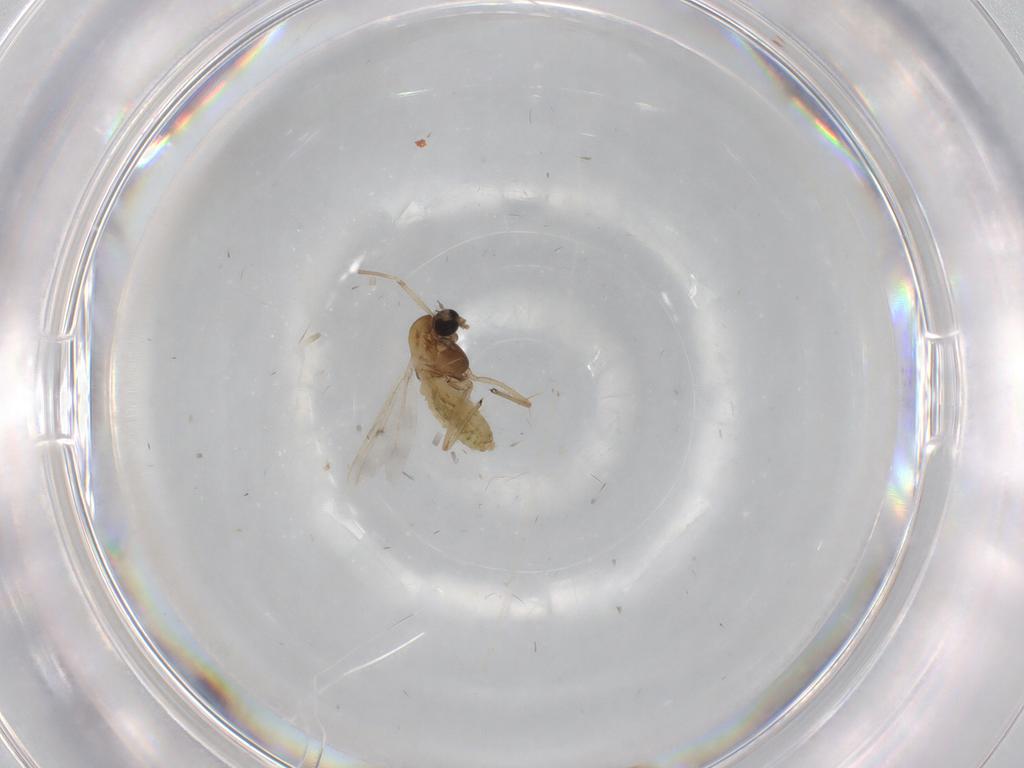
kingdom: Animalia
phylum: Arthropoda
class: Insecta
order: Diptera
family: Chironomidae
